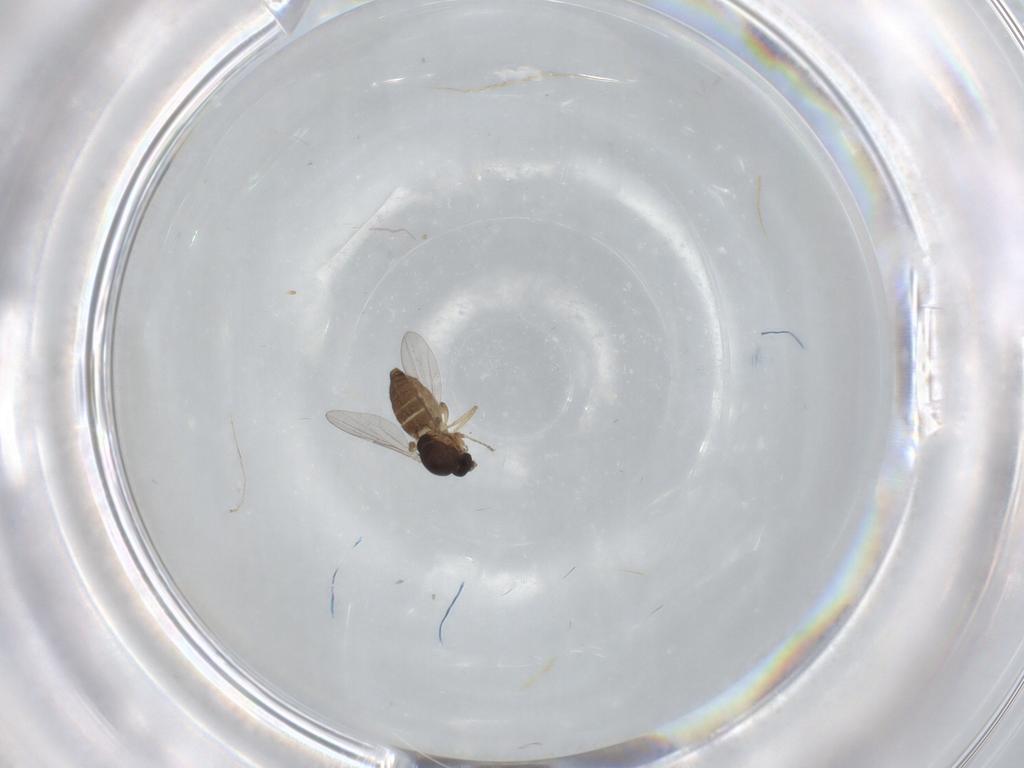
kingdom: Animalia
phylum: Arthropoda
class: Insecta
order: Diptera
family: Ceratopogonidae
